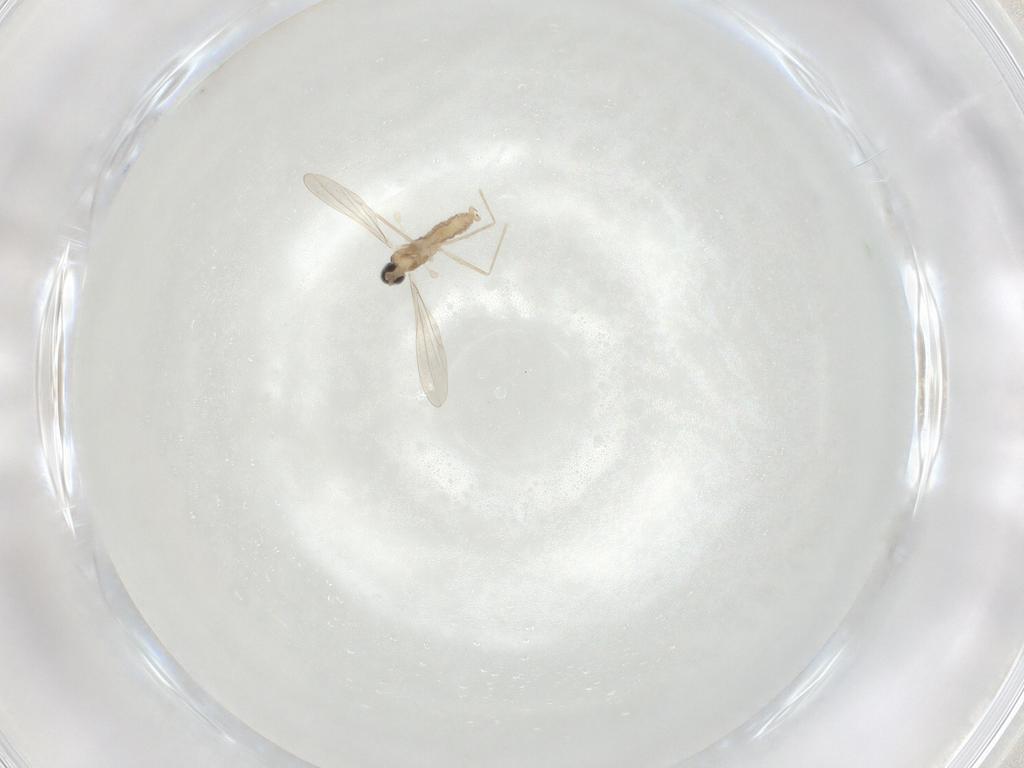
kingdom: Animalia
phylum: Arthropoda
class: Insecta
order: Diptera
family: Cecidomyiidae
